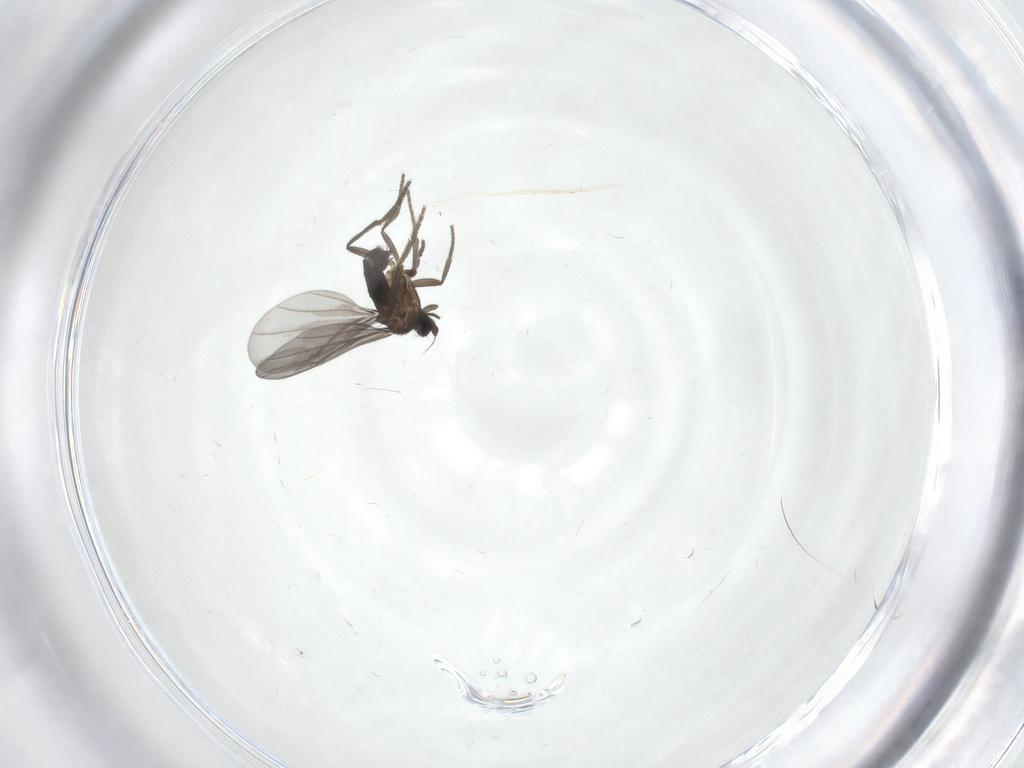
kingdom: Animalia
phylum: Arthropoda
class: Insecta
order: Diptera
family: Phoridae
